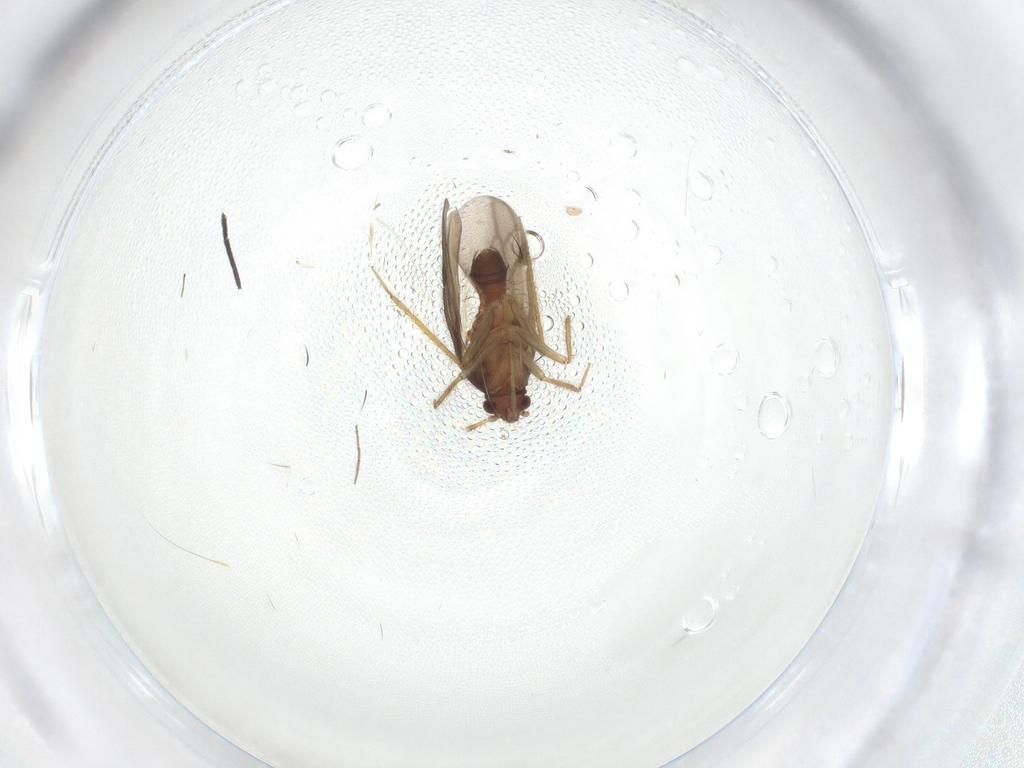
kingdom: Animalia
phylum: Arthropoda
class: Insecta
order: Hemiptera
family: Ceratocombidae
